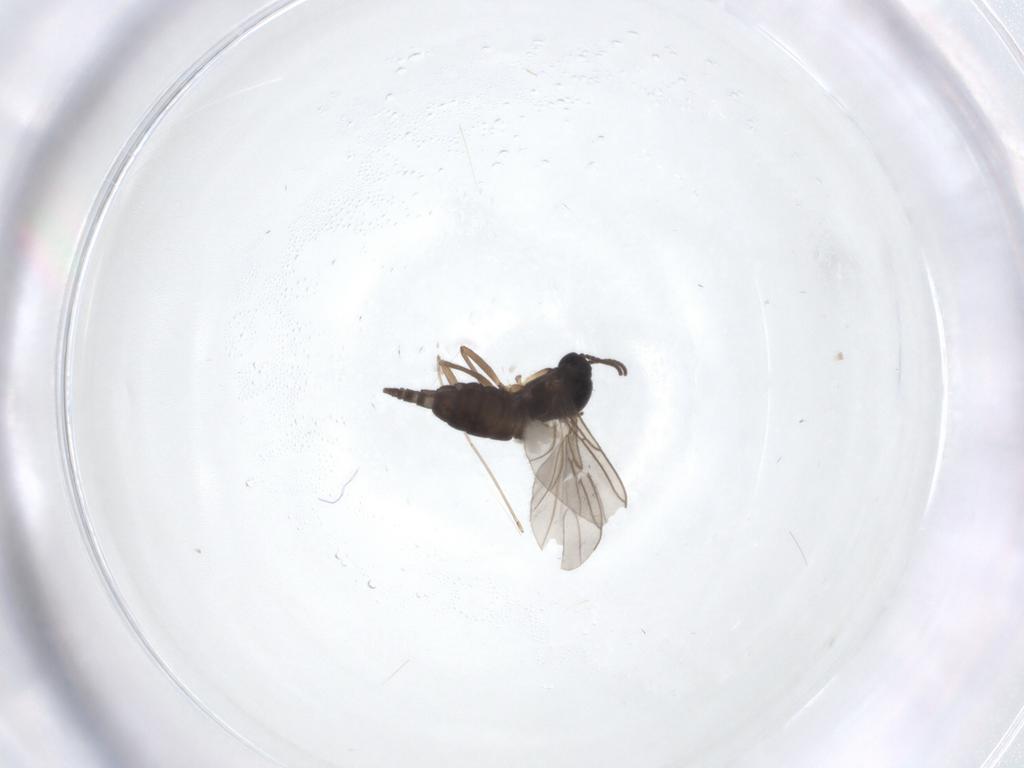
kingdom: Animalia
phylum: Arthropoda
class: Insecta
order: Diptera
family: Sciaridae
